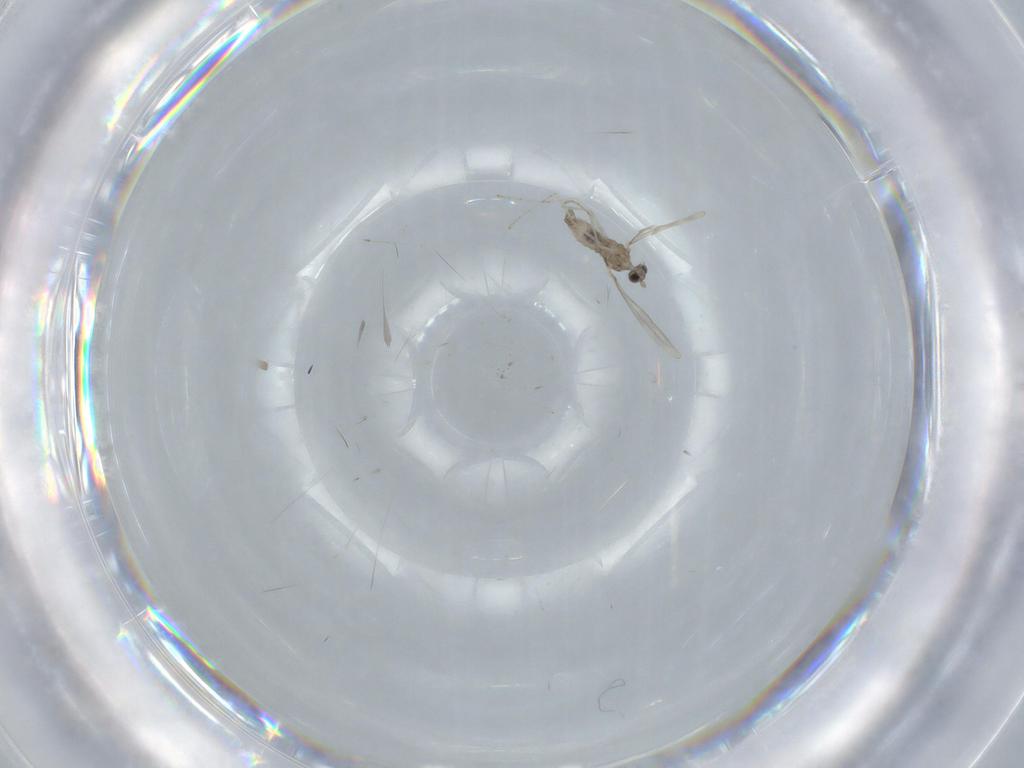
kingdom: Animalia
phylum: Arthropoda
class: Insecta
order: Diptera
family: Cecidomyiidae
